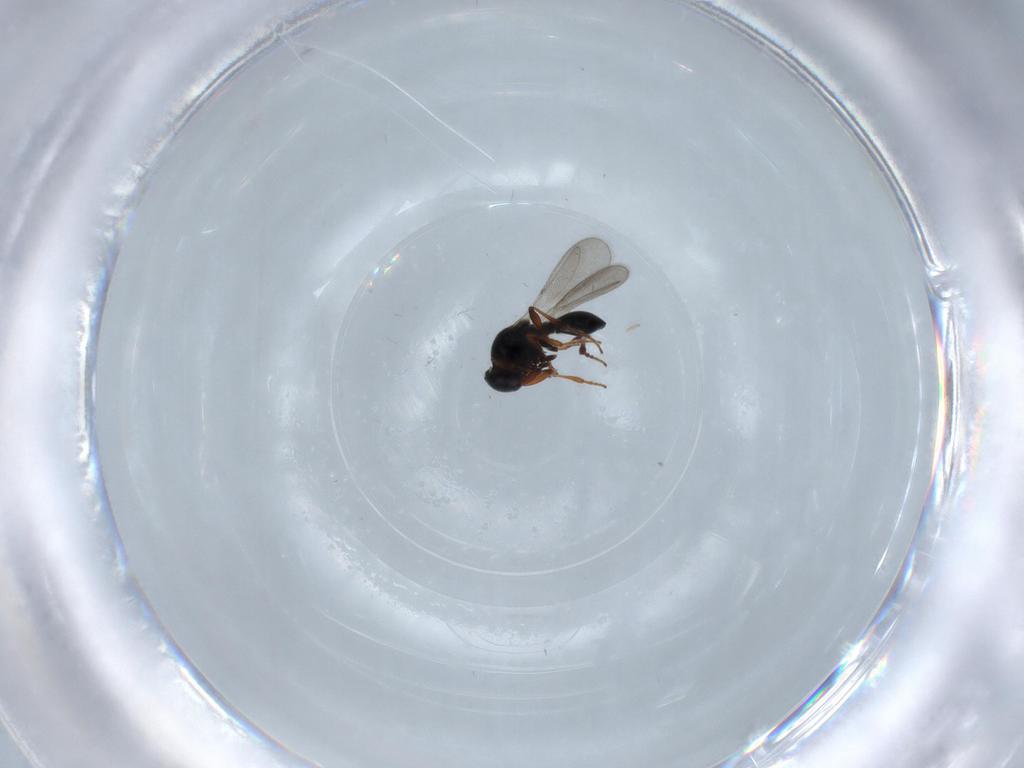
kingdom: Animalia
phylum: Arthropoda
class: Insecta
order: Hymenoptera
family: Platygastridae
